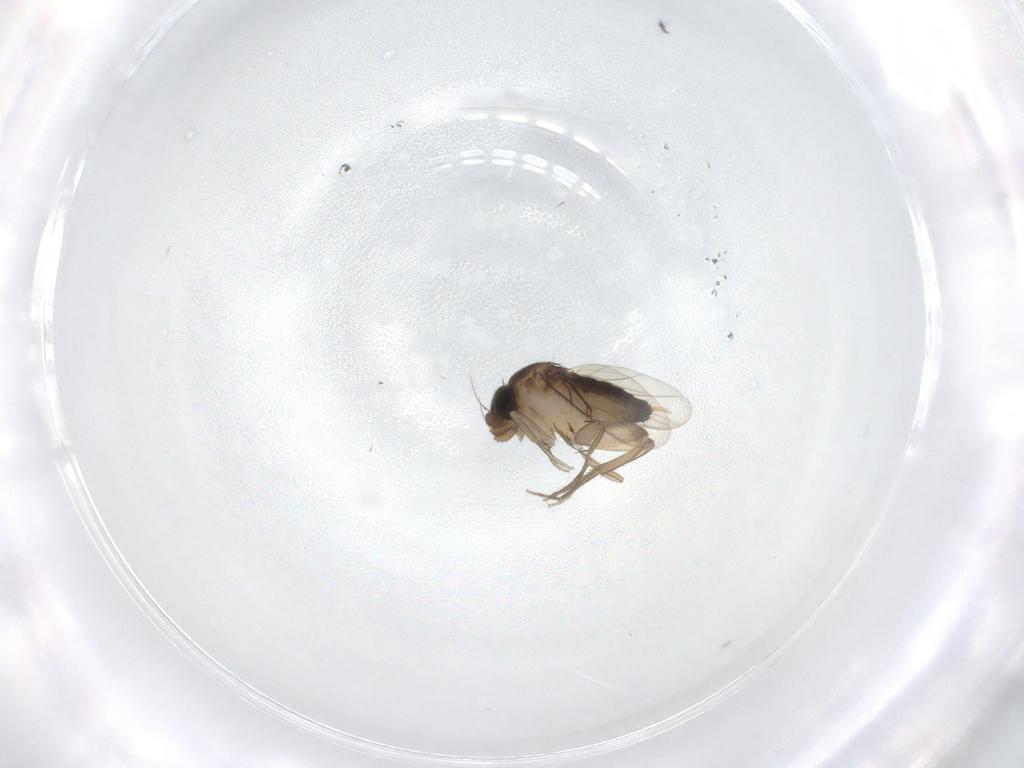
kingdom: Animalia
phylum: Arthropoda
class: Insecta
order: Diptera
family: Phoridae
